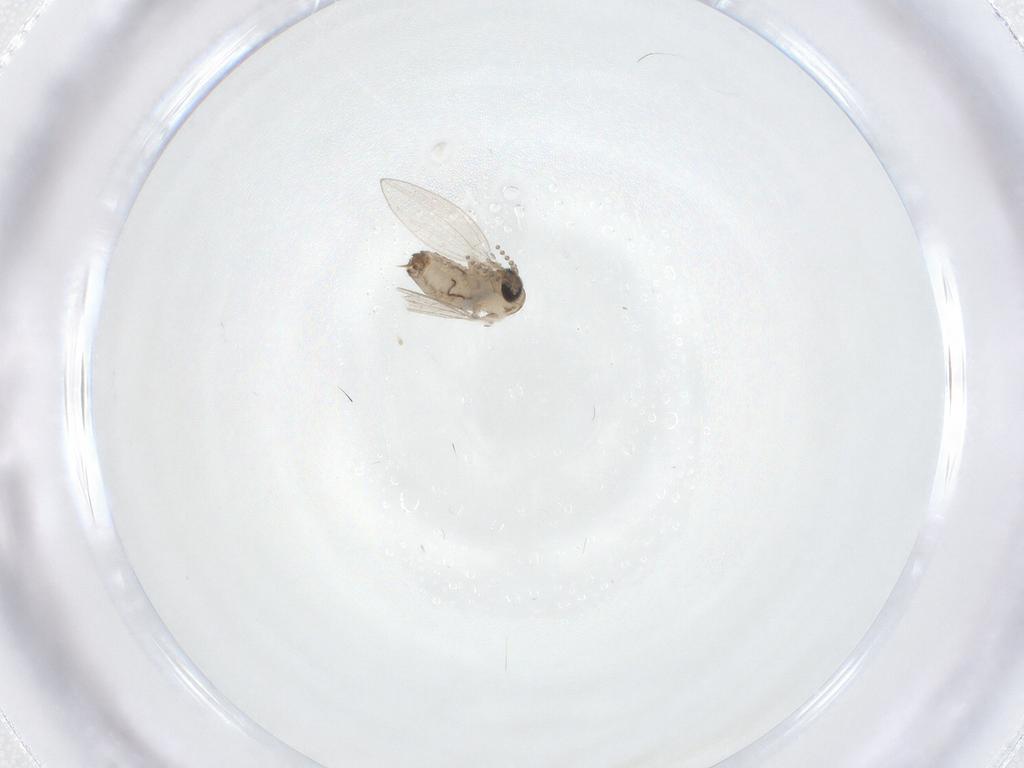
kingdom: Animalia
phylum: Arthropoda
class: Insecta
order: Diptera
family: Psychodidae
